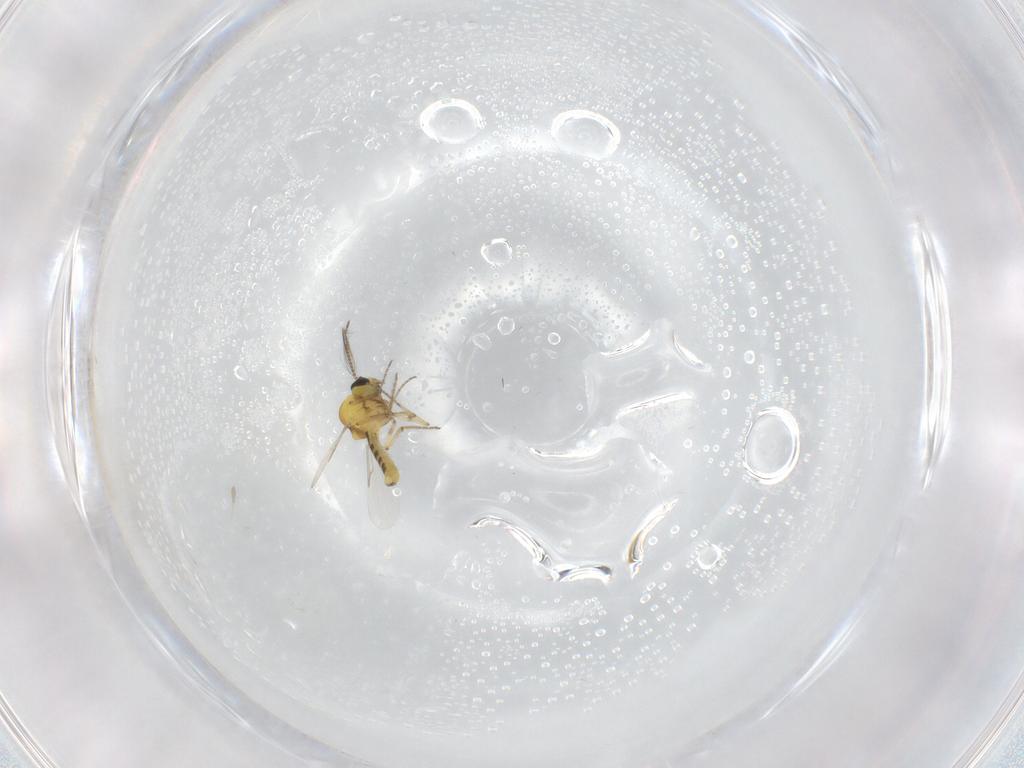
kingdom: Animalia
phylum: Arthropoda
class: Insecta
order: Diptera
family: Phoridae
